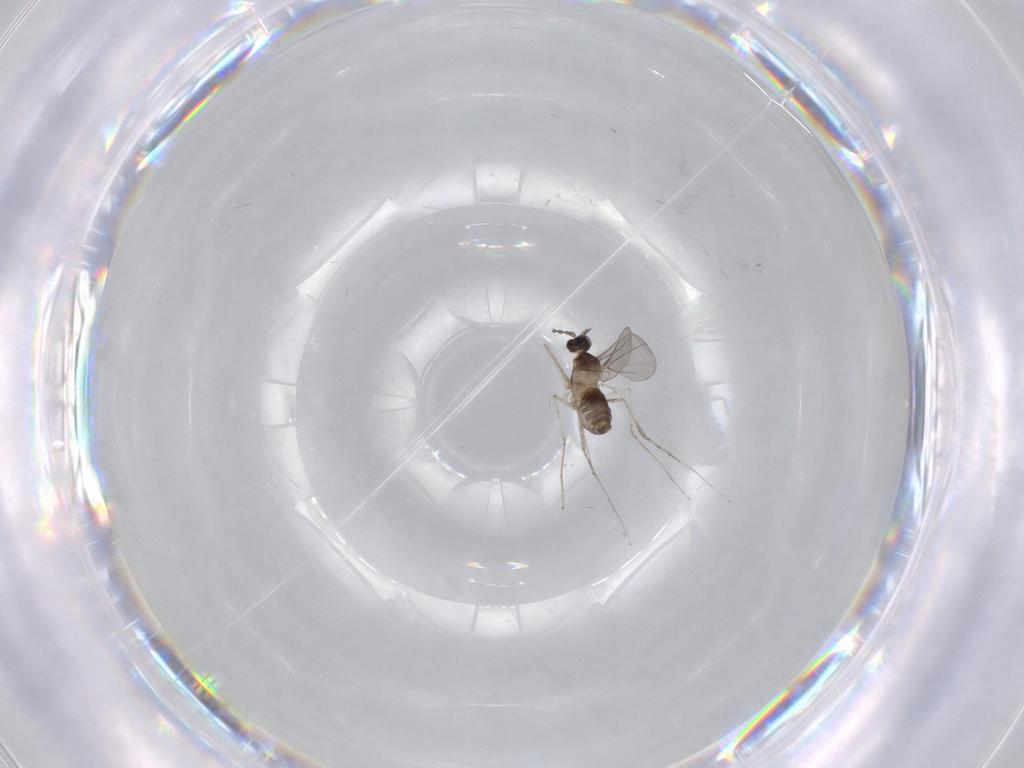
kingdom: Animalia
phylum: Arthropoda
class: Insecta
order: Diptera
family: Cecidomyiidae
